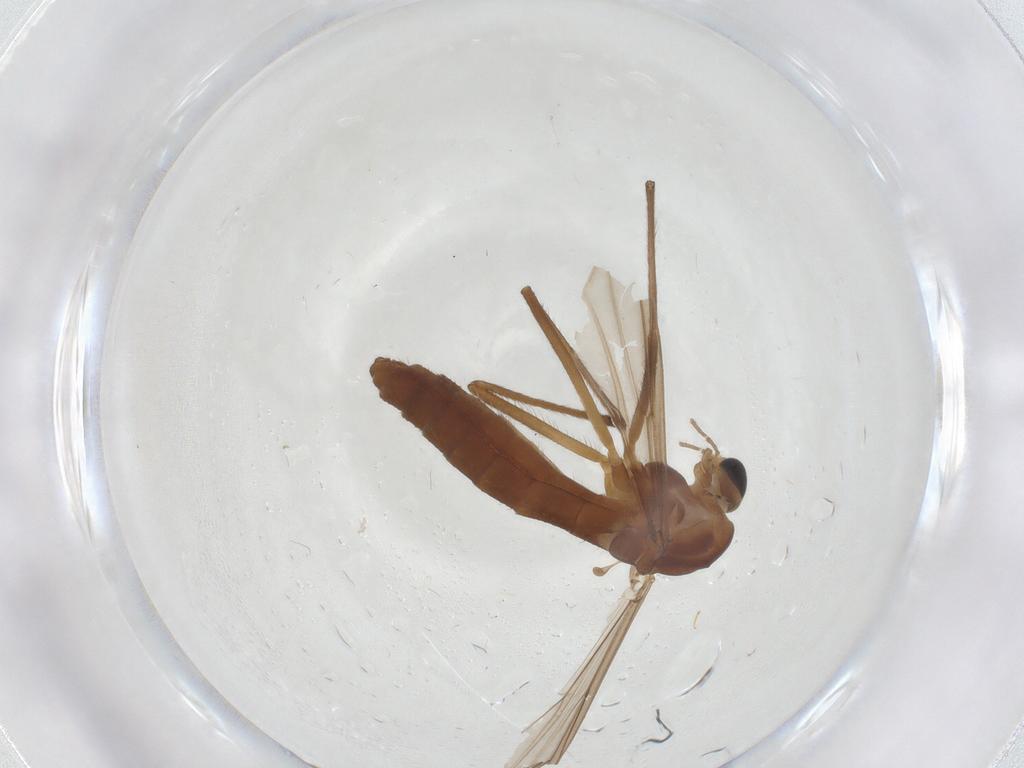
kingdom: Animalia
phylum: Arthropoda
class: Insecta
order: Diptera
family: Chironomidae
